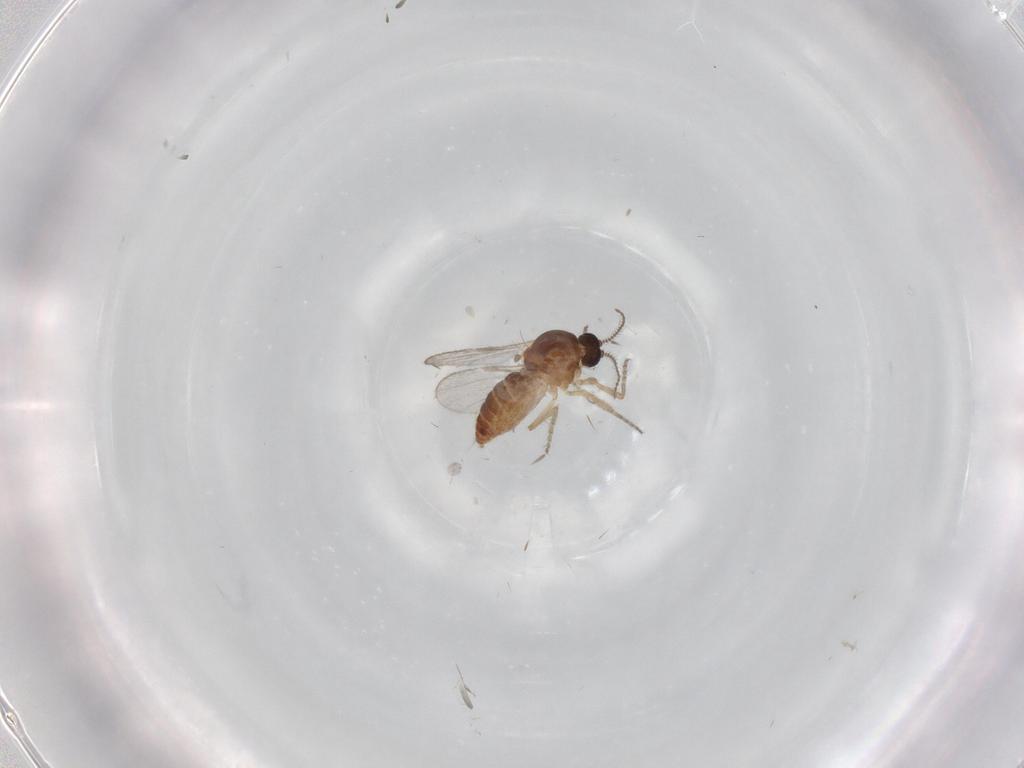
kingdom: Animalia
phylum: Arthropoda
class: Insecta
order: Diptera
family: Ceratopogonidae
